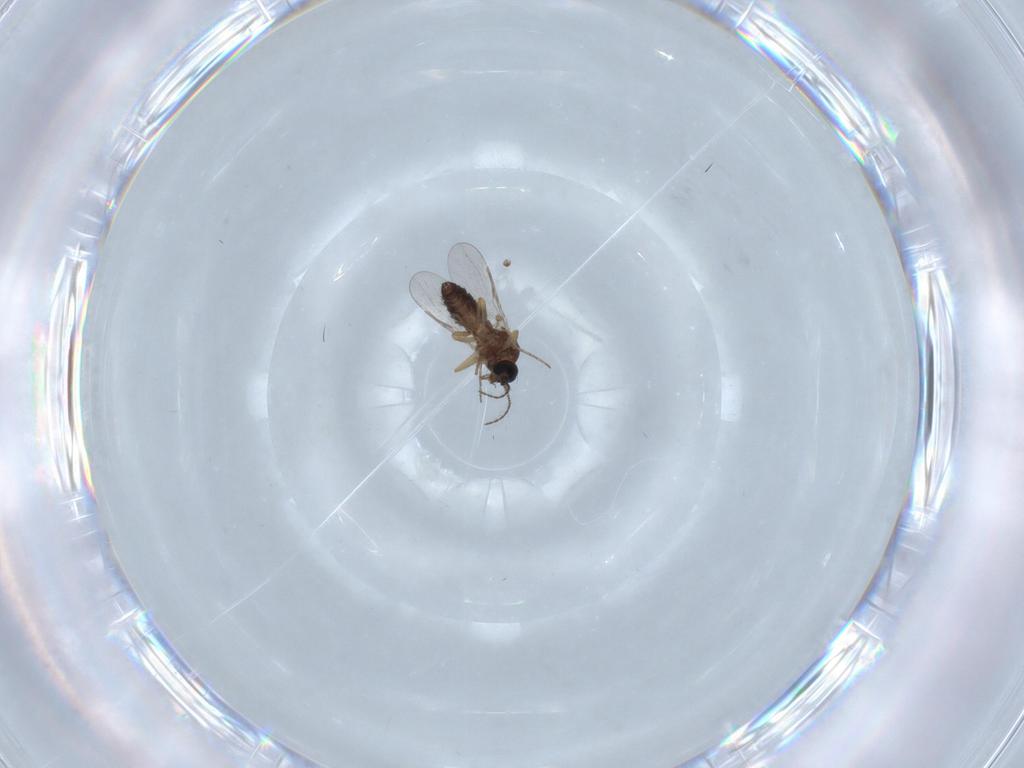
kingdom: Animalia
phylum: Arthropoda
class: Insecta
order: Diptera
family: Ceratopogonidae
